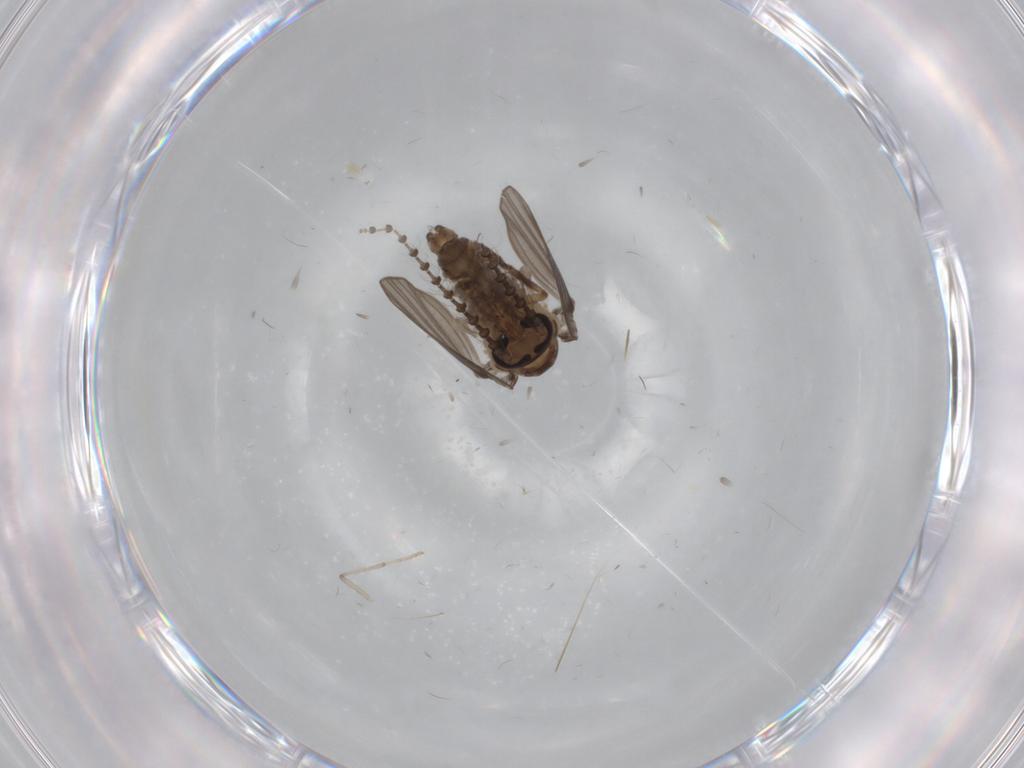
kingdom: Animalia
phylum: Arthropoda
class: Insecta
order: Diptera
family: Psychodidae
